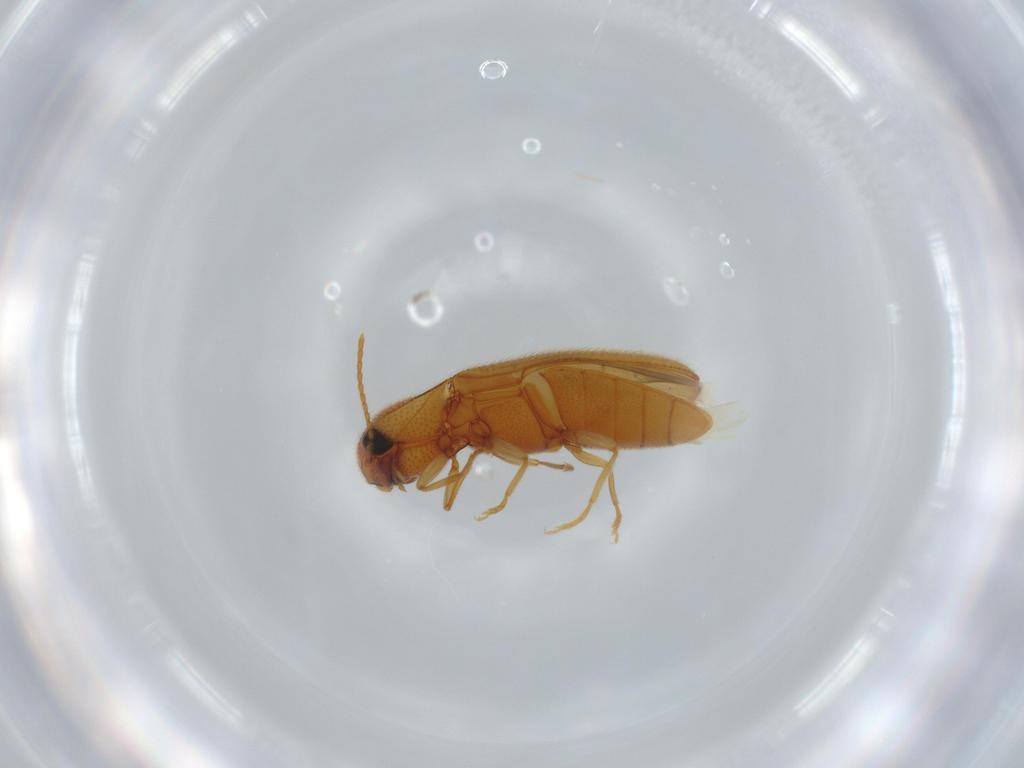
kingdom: Animalia
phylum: Arthropoda
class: Insecta
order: Coleoptera
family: Elateridae
